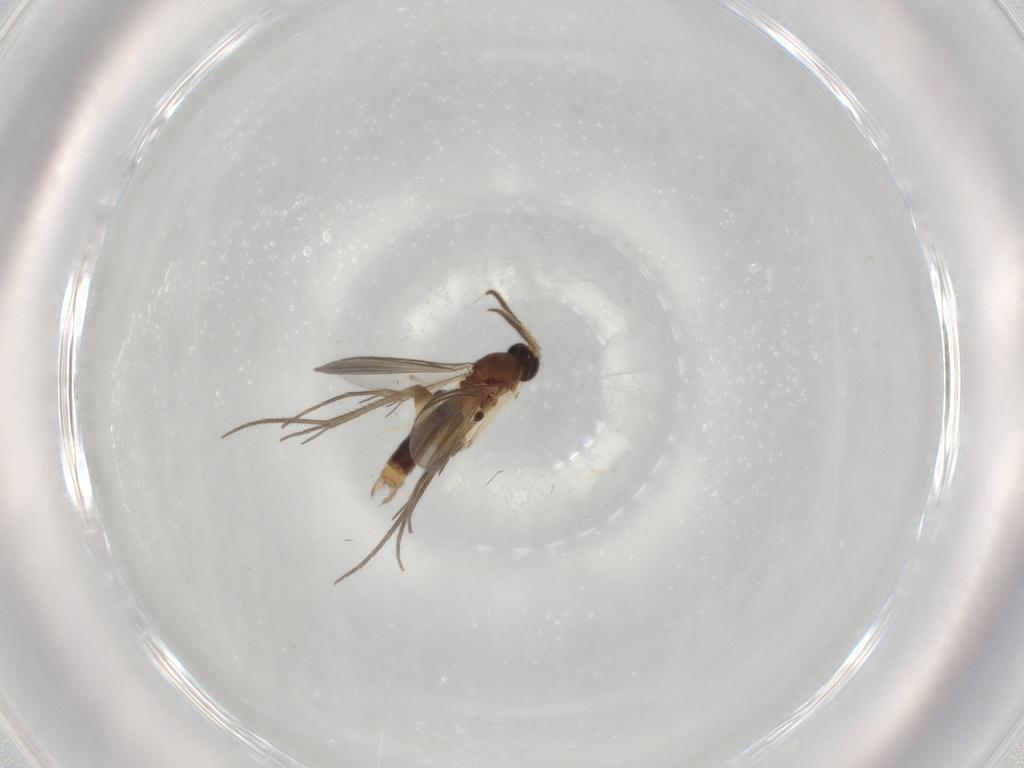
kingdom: Animalia
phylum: Arthropoda
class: Insecta
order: Diptera
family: Mycetophilidae
